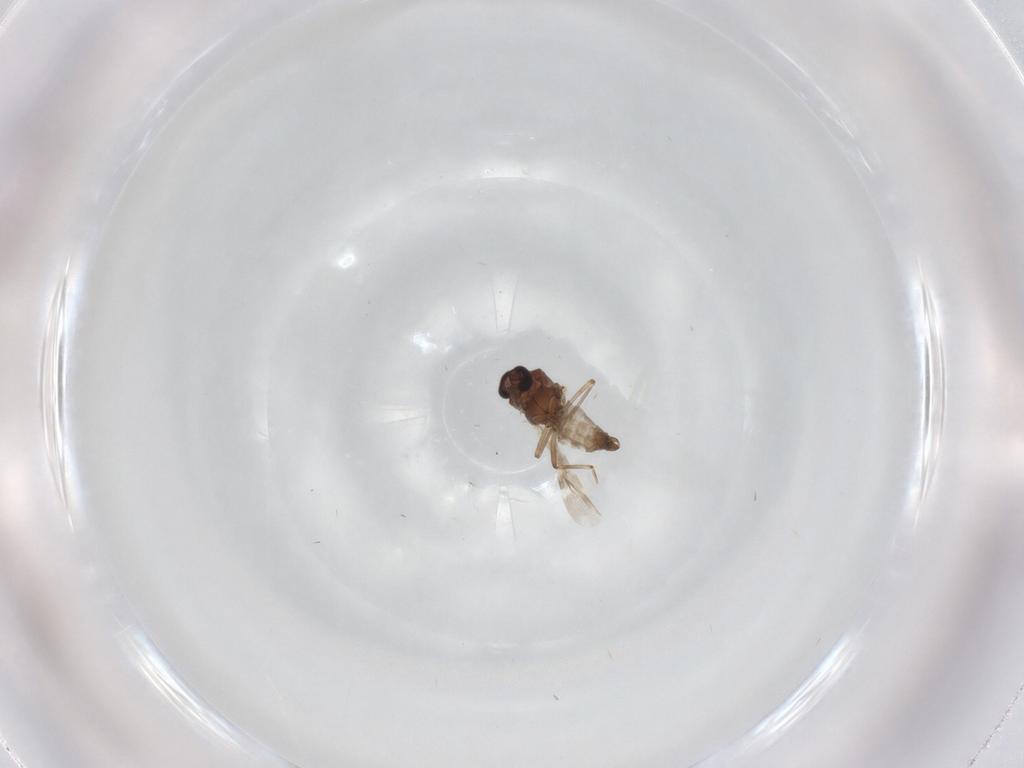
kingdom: Animalia
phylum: Arthropoda
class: Insecta
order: Diptera
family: Ceratopogonidae
